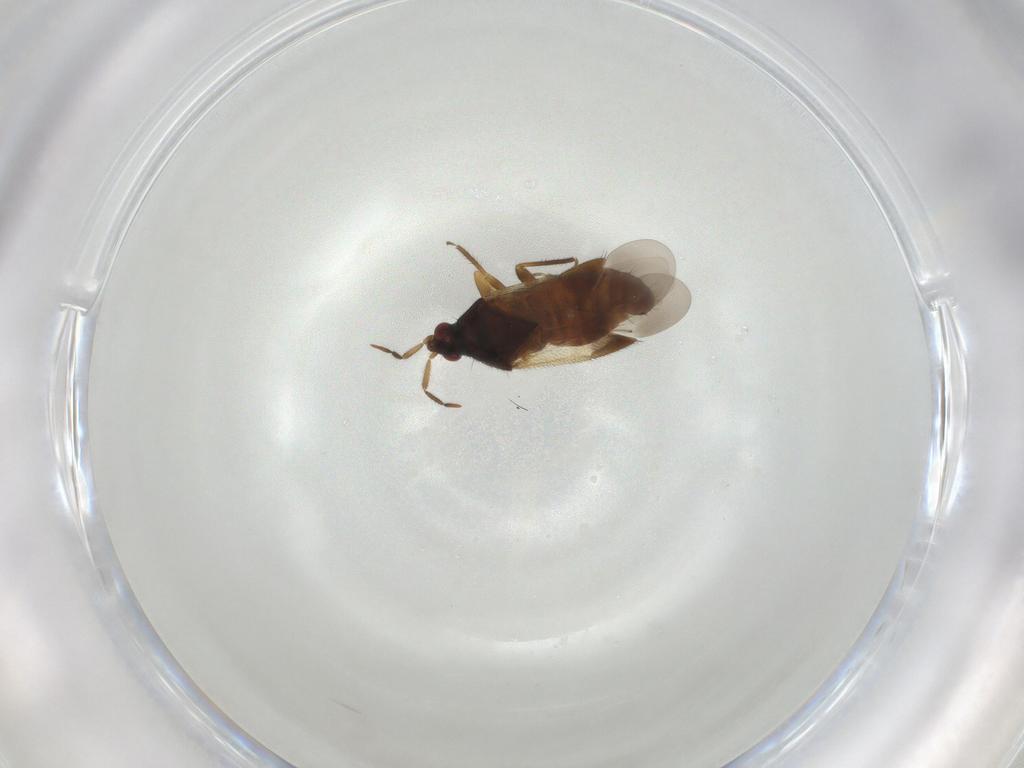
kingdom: Animalia
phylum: Arthropoda
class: Insecta
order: Hemiptera
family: Anthocoridae
